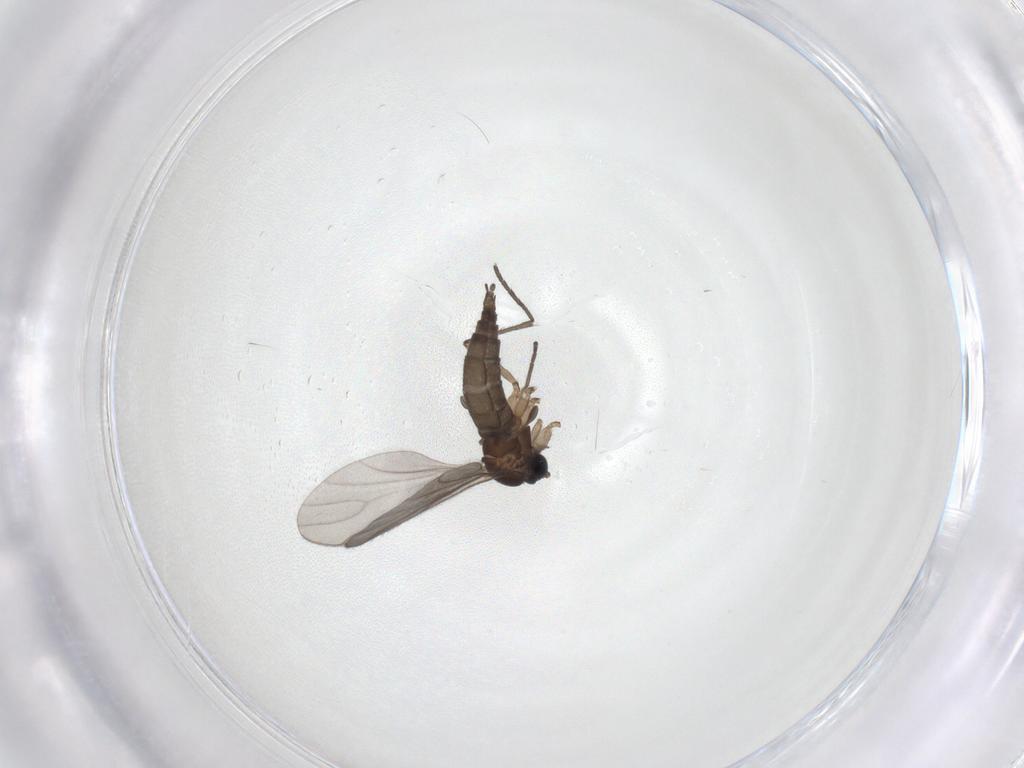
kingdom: Animalia
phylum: Arthropoda
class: Insecta
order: Diptera
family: Sciaridae
